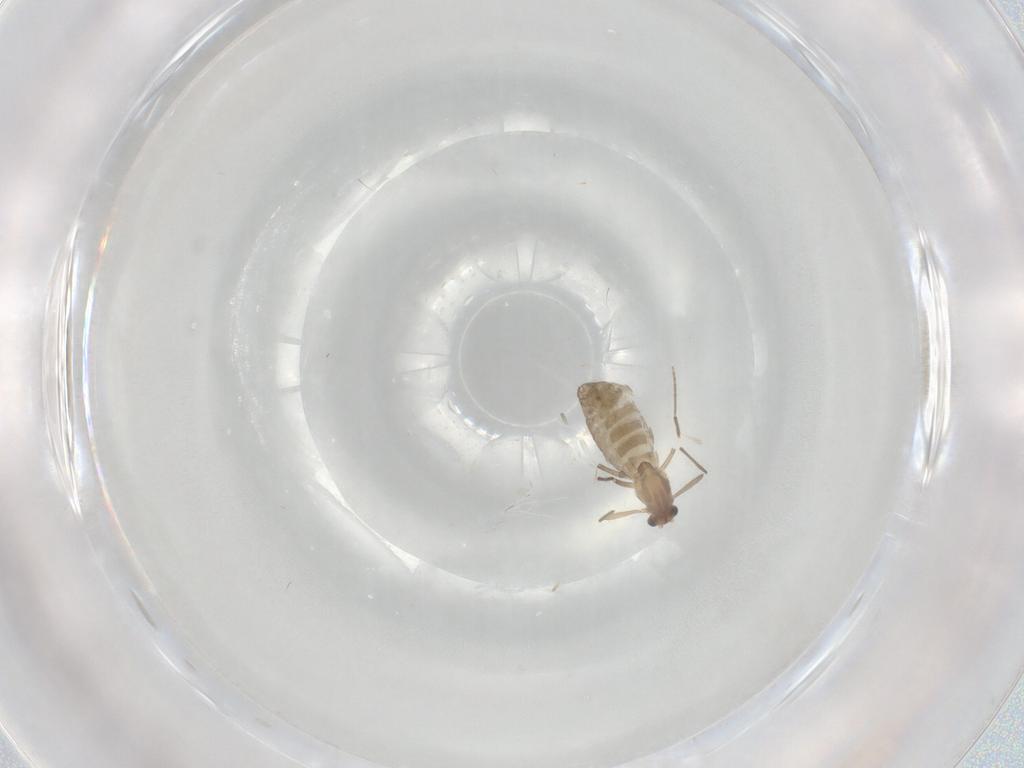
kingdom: Animalia
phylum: Arthropoda
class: Insecta
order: Diptera
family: Chironomidae
